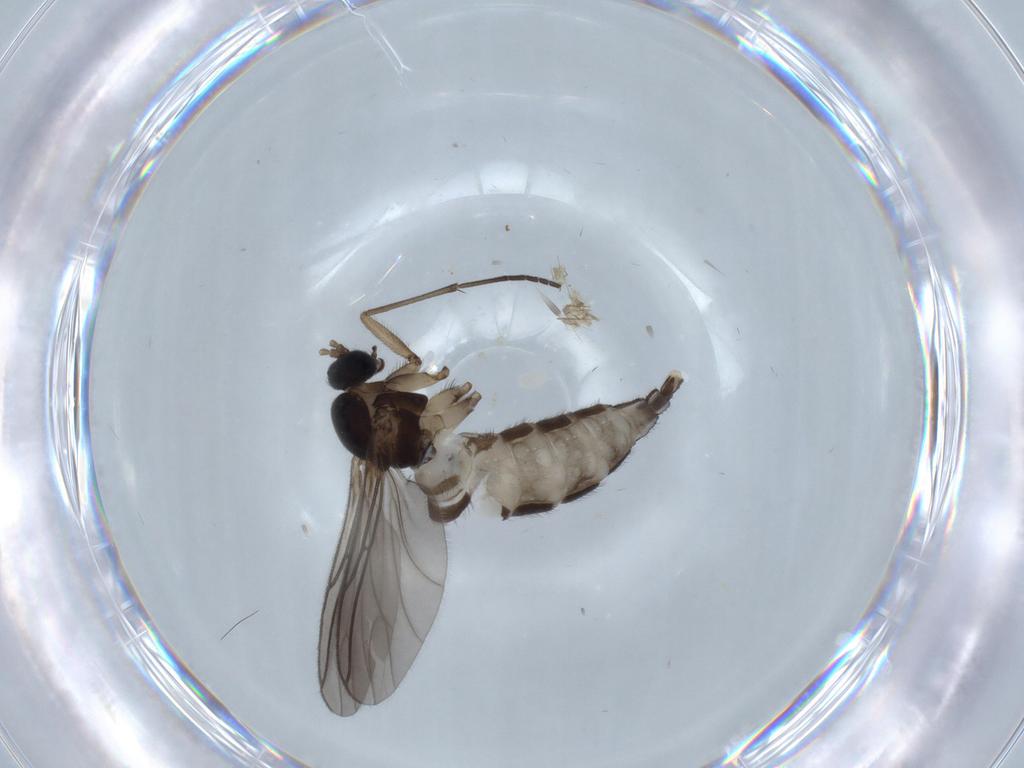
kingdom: Animalia
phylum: Arthropoda
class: Insecta
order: Diptera
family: Sciaridae
